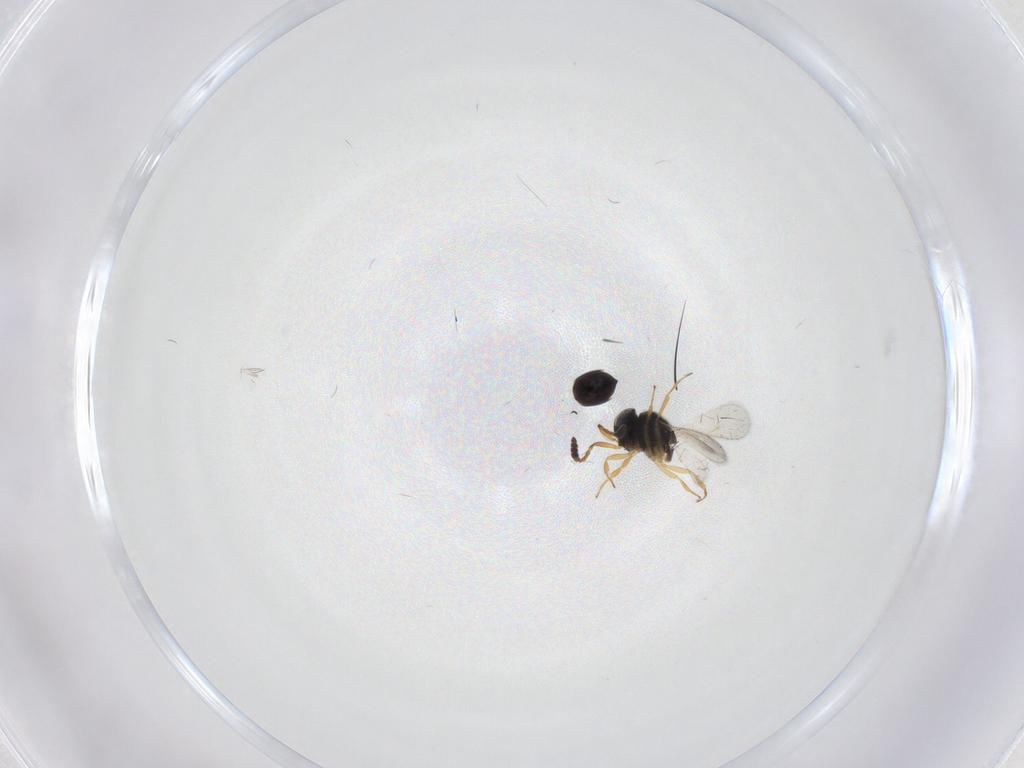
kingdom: Animalia
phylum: Arthropoda
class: Insecta
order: Hymenoptera
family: Scelionidae
